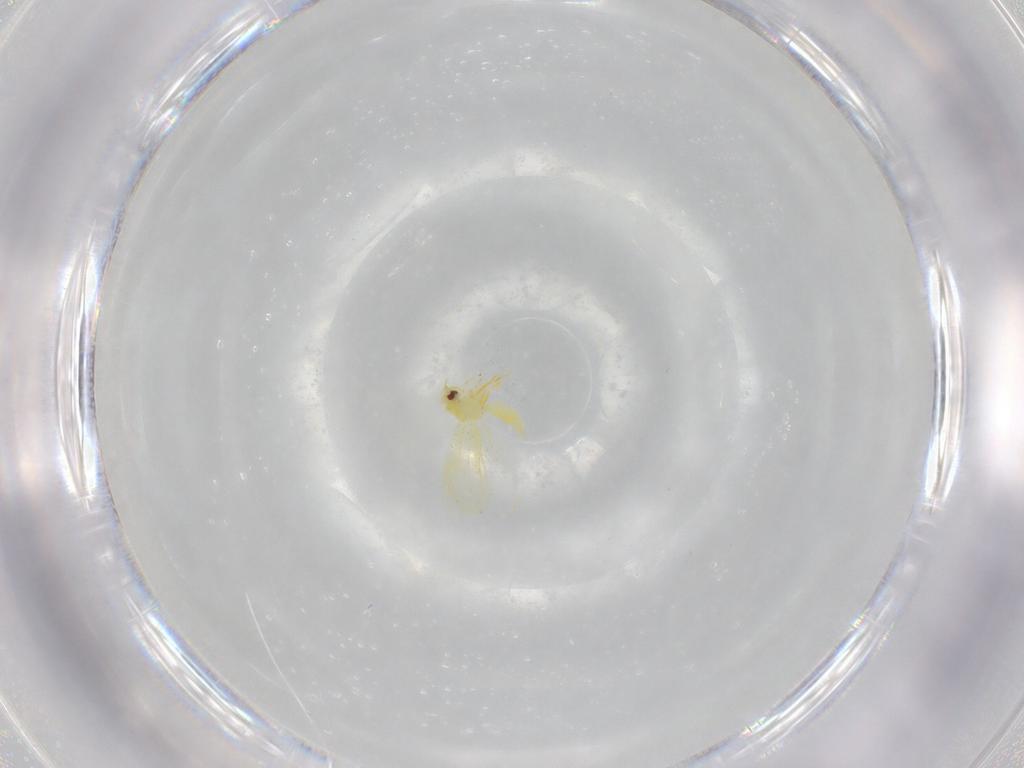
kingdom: Animalia
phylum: Arthropoda
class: Insecta
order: Hemiptera
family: Aleyrodidae
